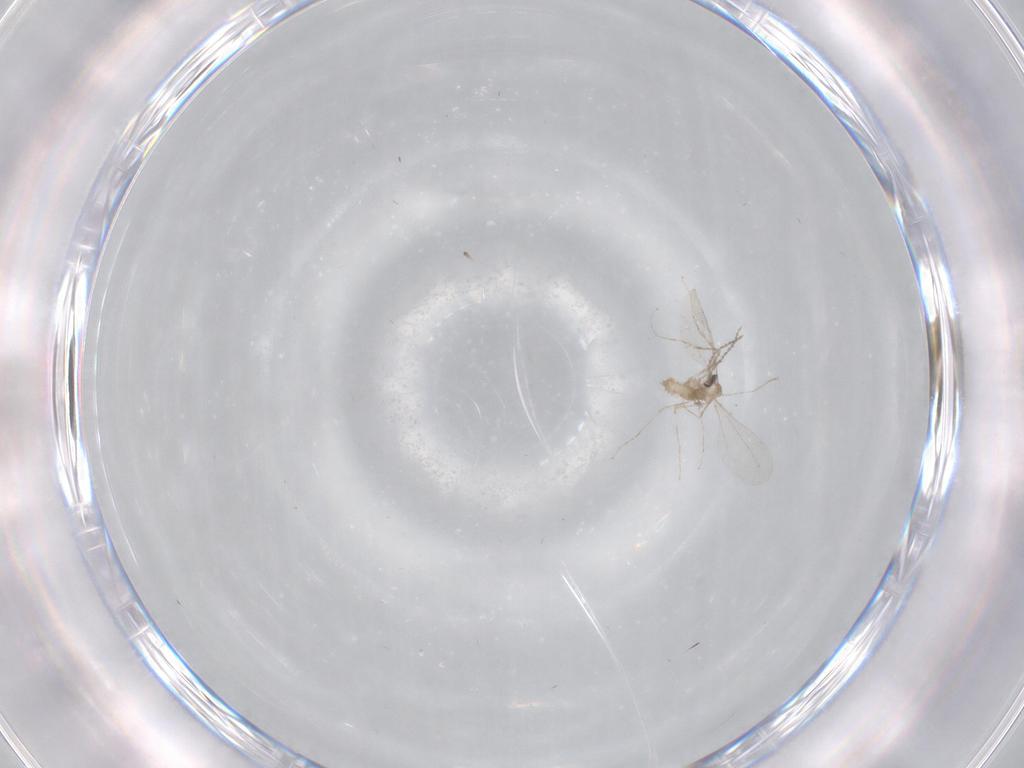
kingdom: Animalia
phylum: Arthropoda
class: Insecta
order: Diptera
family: Cecidomyiidae
